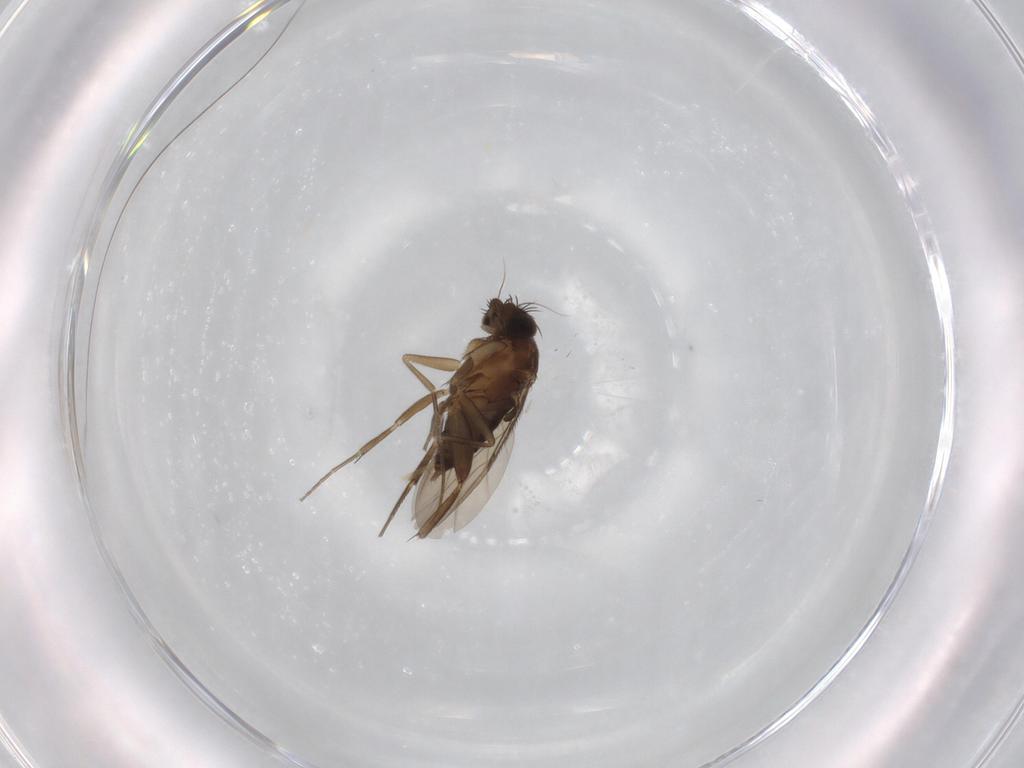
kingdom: Animalia
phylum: Arthropoda
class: Insecta
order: Diptera
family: Phoridae
